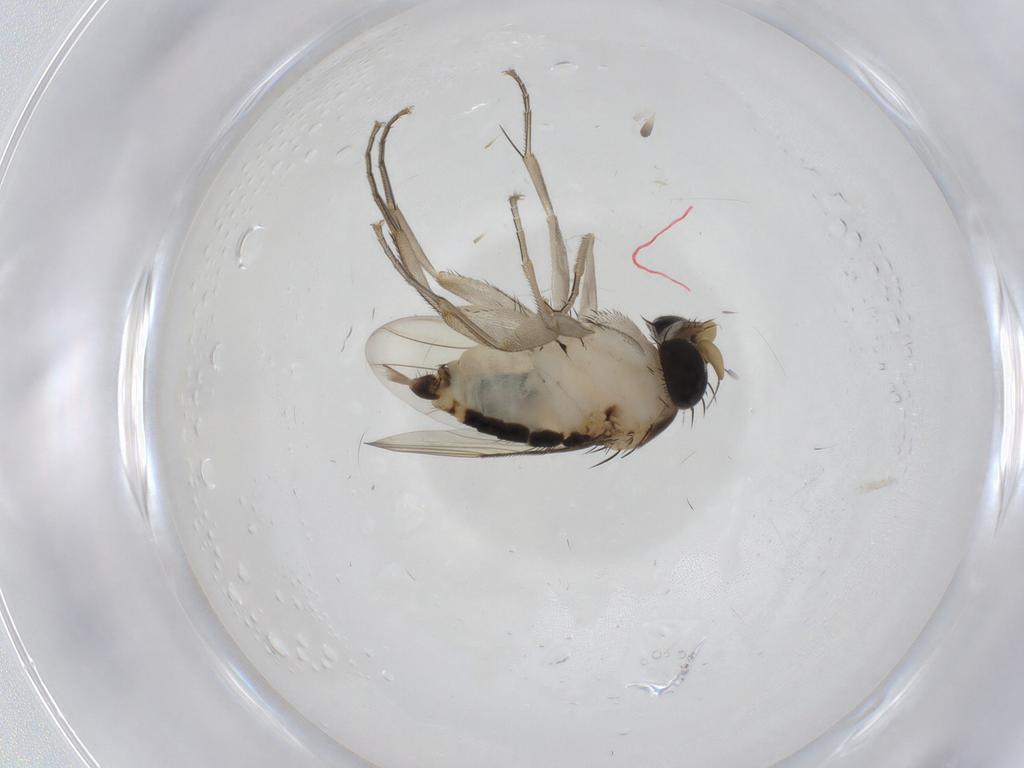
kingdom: Animalia
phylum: Arthropoda
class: Insecta
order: Diptera
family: Phoridae
